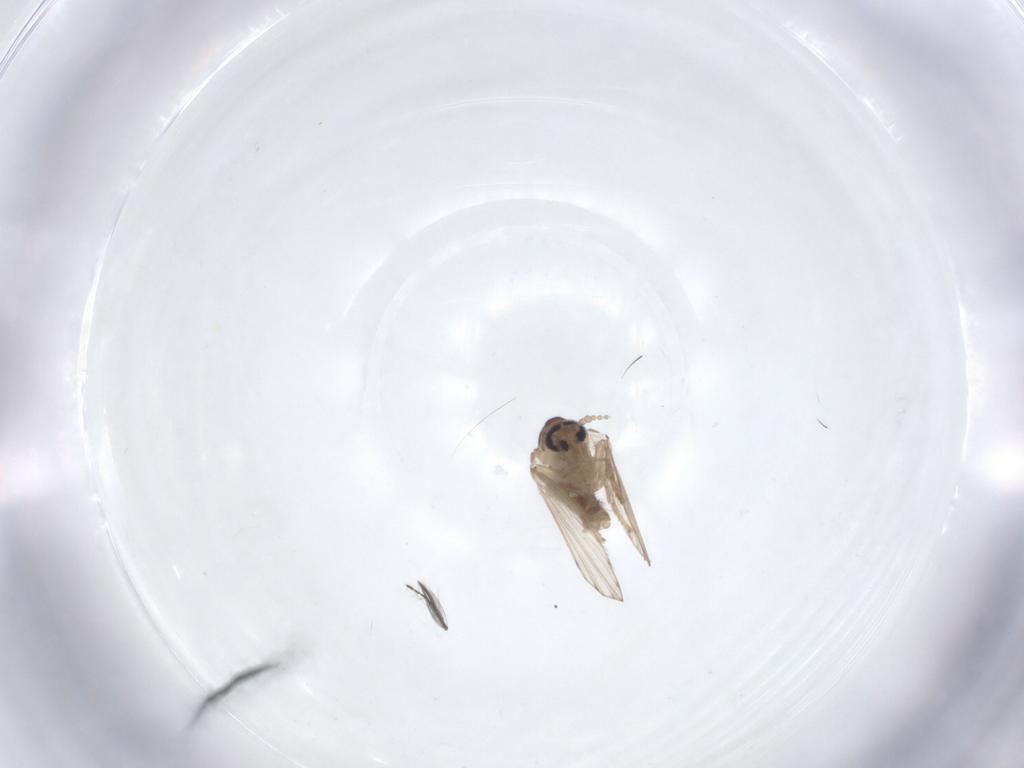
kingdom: Animalia
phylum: Arthropoda
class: Insecta
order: Diptera
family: Psychodidae
